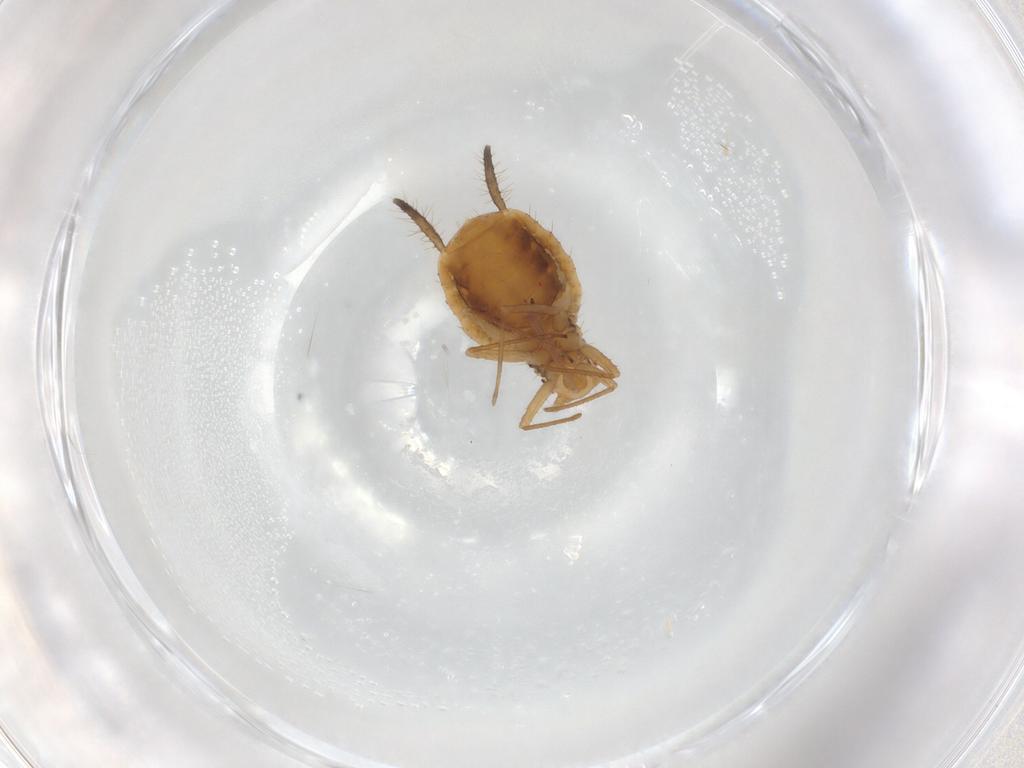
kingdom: Animalia
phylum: Arthropoda
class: Insecta
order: Hemiptera
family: Aphididae
